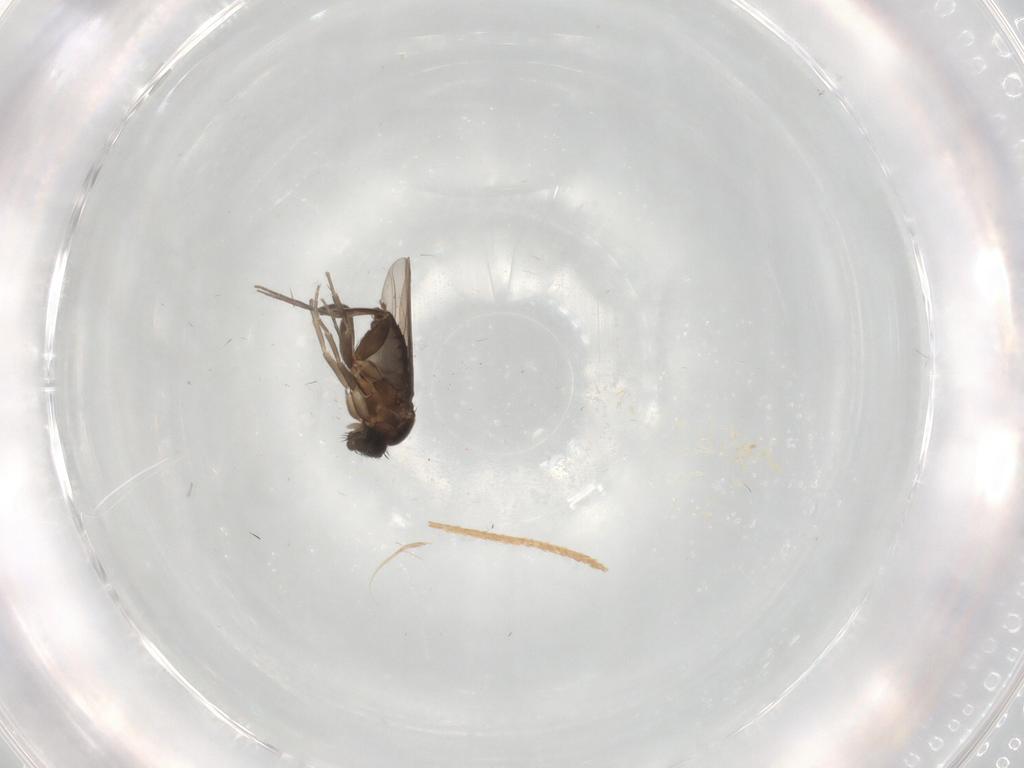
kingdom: Animalia
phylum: Arthropoda
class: Insecta
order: Diptera
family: Phoridae
